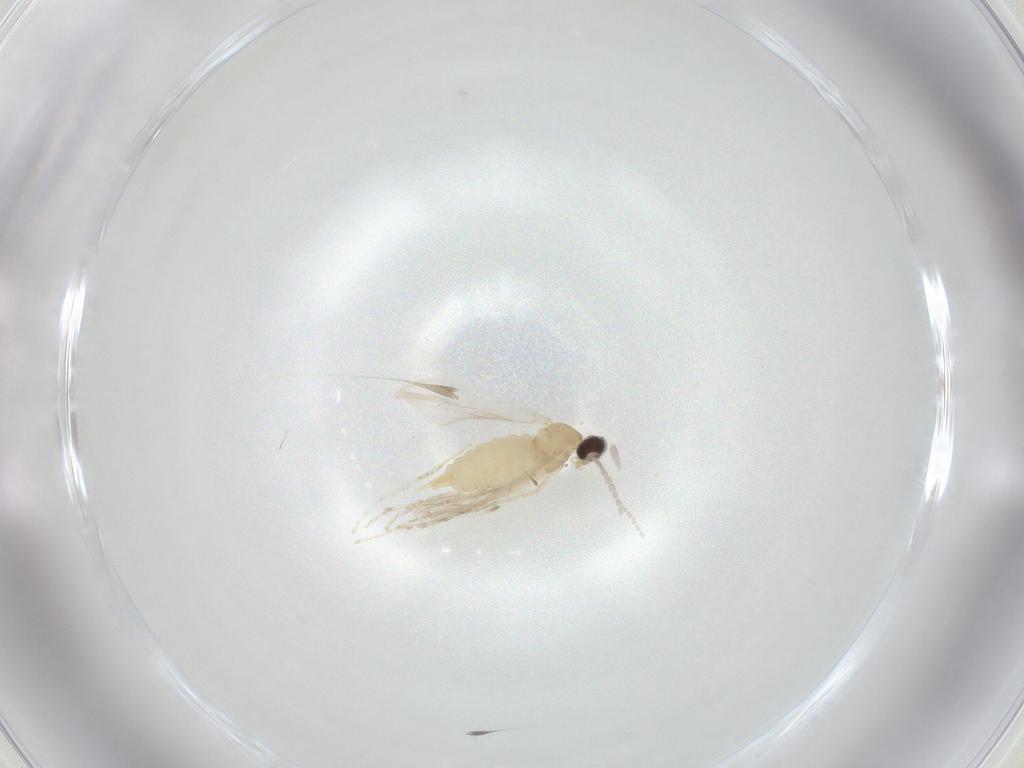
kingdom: Animalia
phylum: Arthropoda
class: Insecta
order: Diptera
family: Cecidomyiidae
